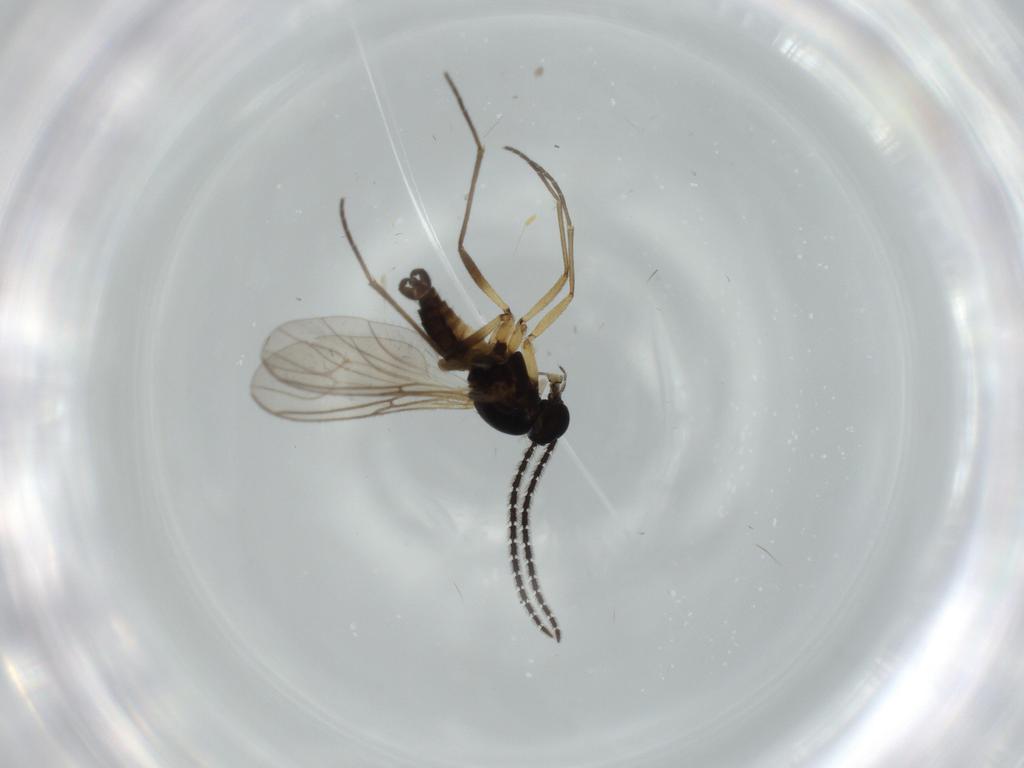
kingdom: Animalia
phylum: Arthropoda
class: Insecta
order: Diptera
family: Sciaridae
